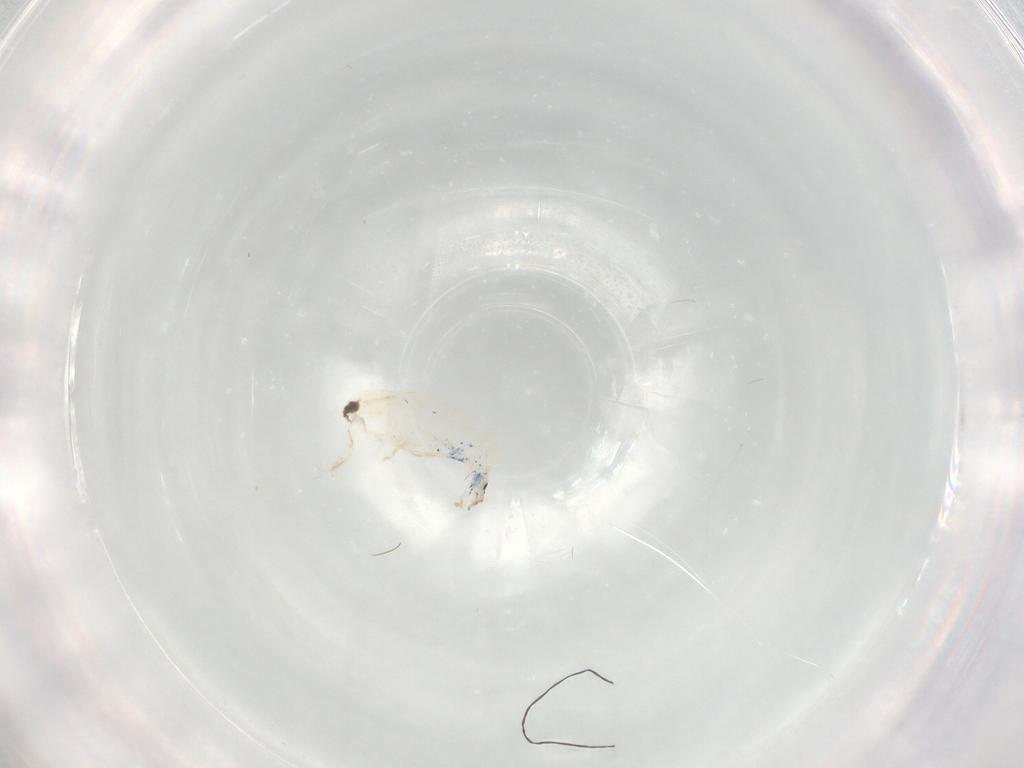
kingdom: Animalia
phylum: Arthropoda
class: Collembola
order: Entomobryomorpha
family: Entomobryidae
